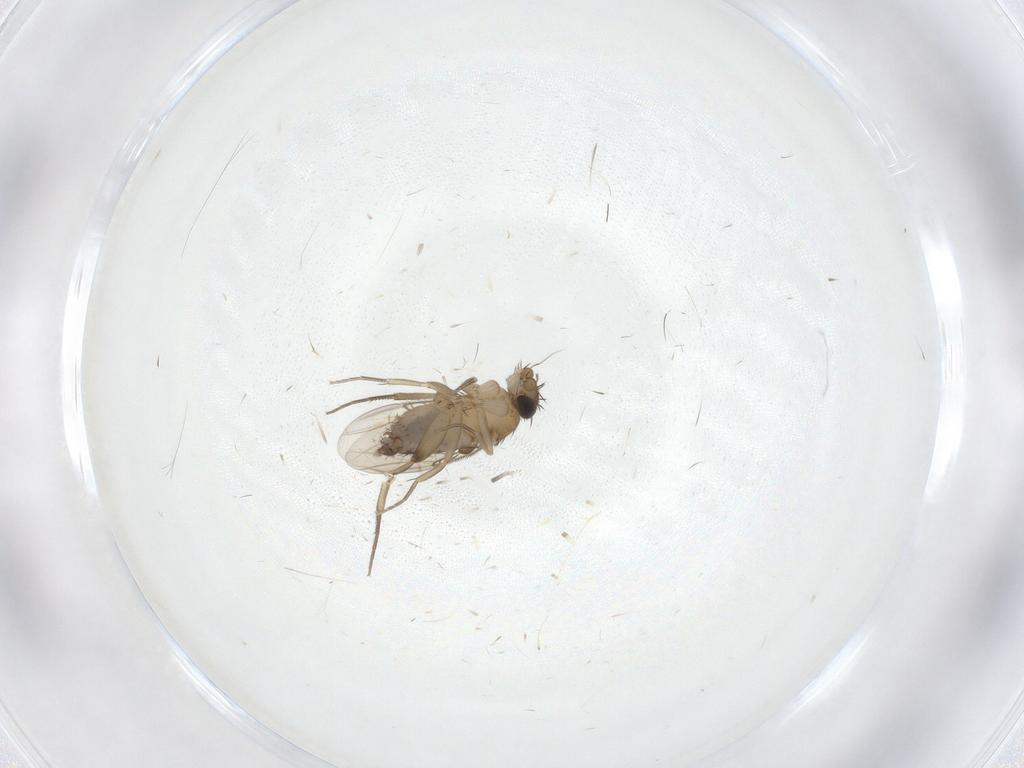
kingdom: Animalia
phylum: Arthropoda
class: Insecta
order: Diptera
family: Phoridae
